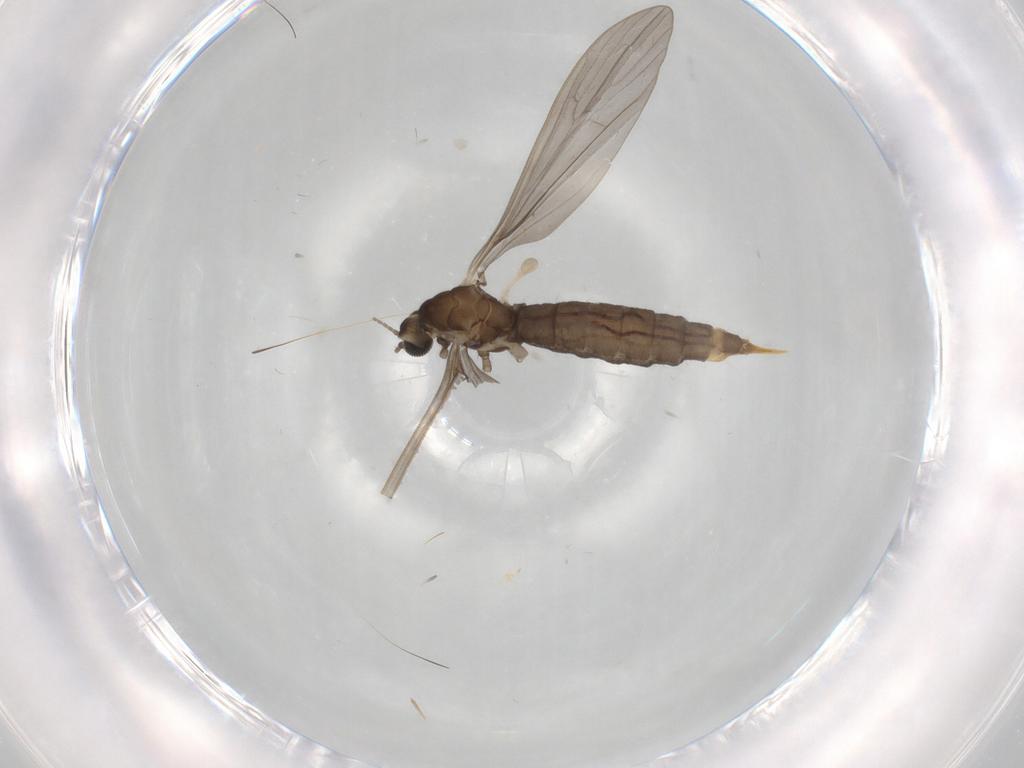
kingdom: Animalia
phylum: Arthropoda
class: Insecta
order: Diptera
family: Limoniidae
